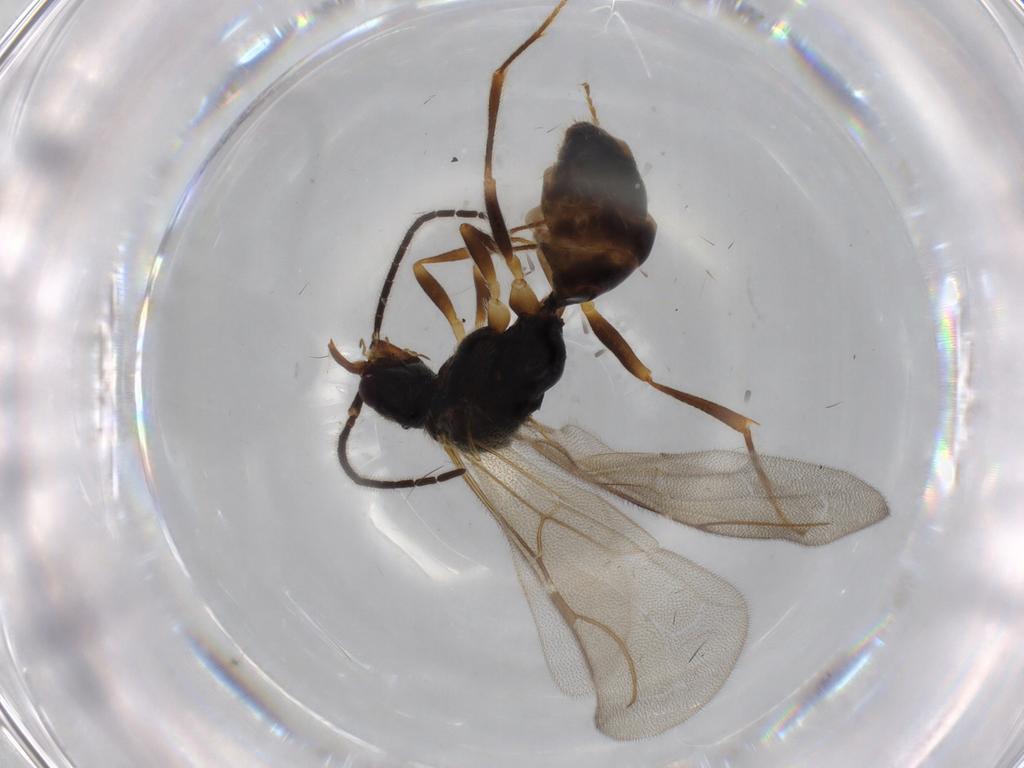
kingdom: Animalia
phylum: Arthropoda
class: Insecta
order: Hymenoptera
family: Bethylidae
